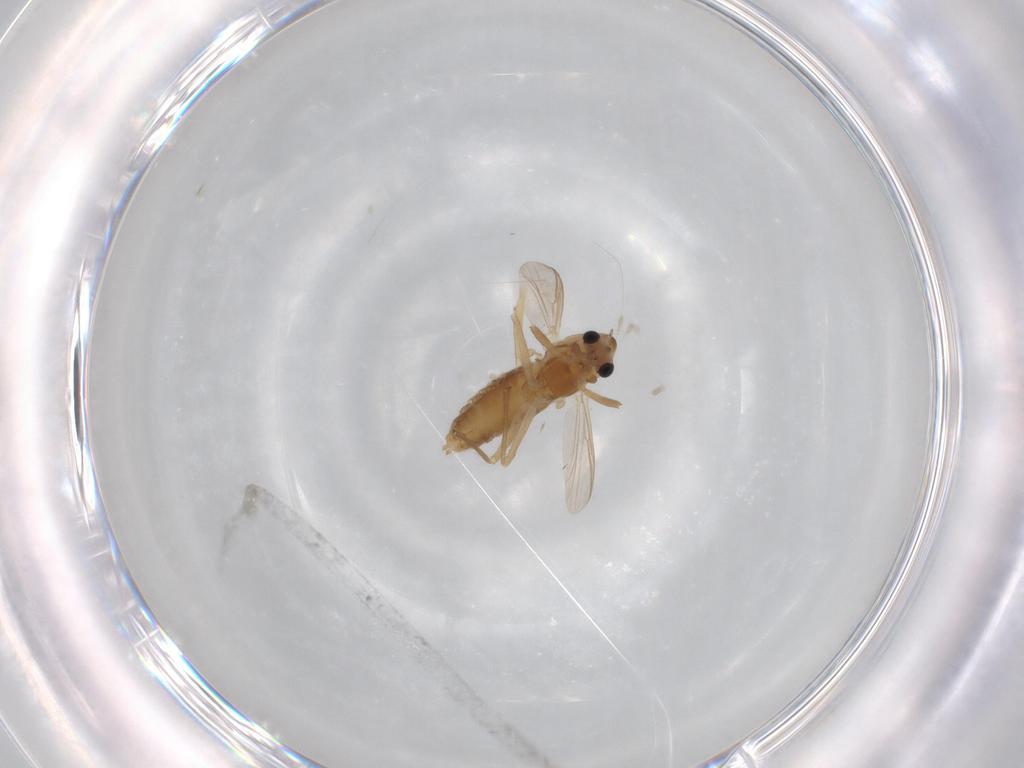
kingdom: Animalia
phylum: Arthropoda
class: Insecta
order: Diptera
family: Chironomidae
